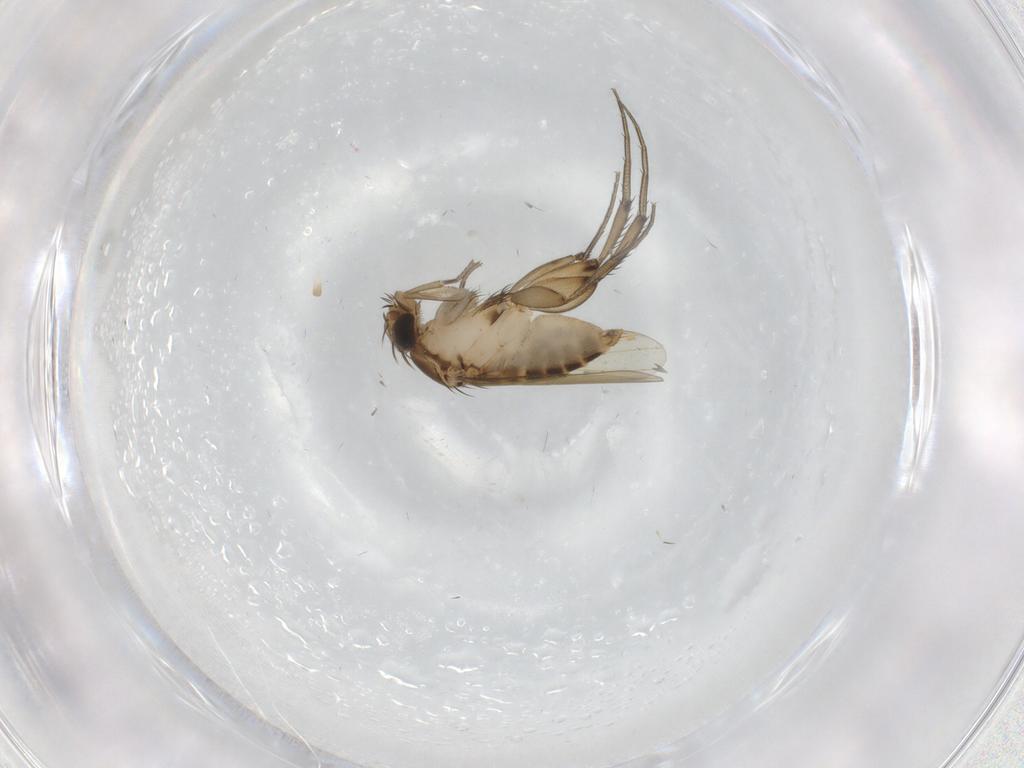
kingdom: Animalia
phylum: Arthropoda
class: Insecta
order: Diptera
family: Phoridae
